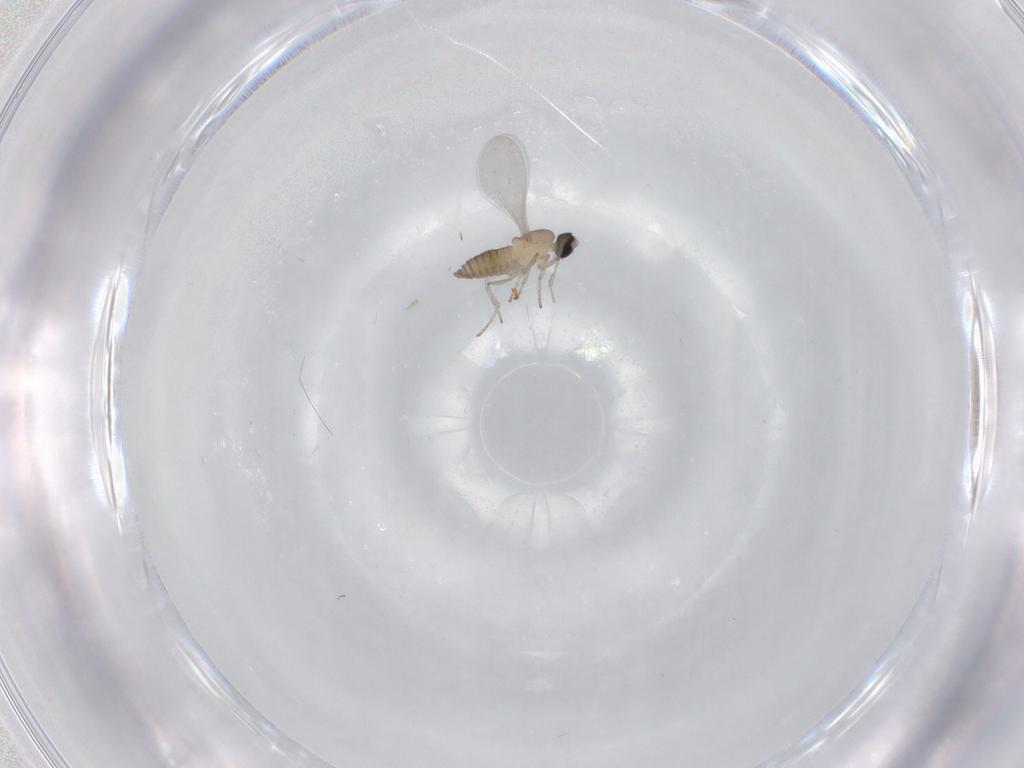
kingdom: Animalia
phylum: Arthropoda
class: Insecta
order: Diptera
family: Cecidomyiidae
